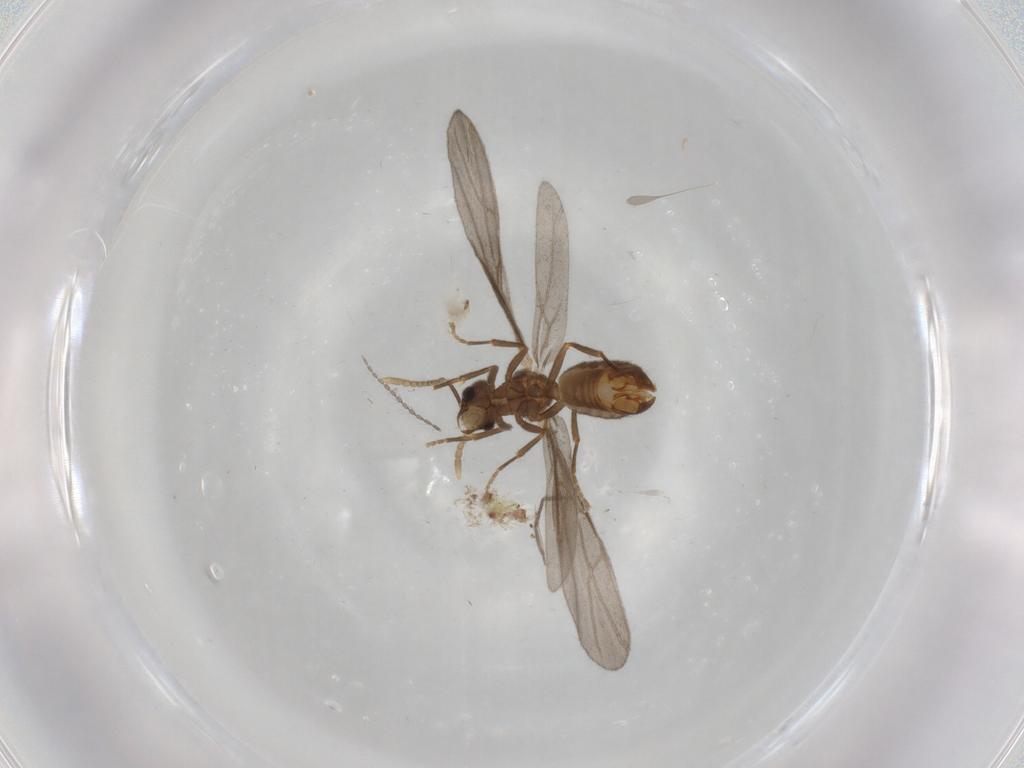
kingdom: Animalia
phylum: Arthropoda
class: Insecta
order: Hymenoptera
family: Formicidae
